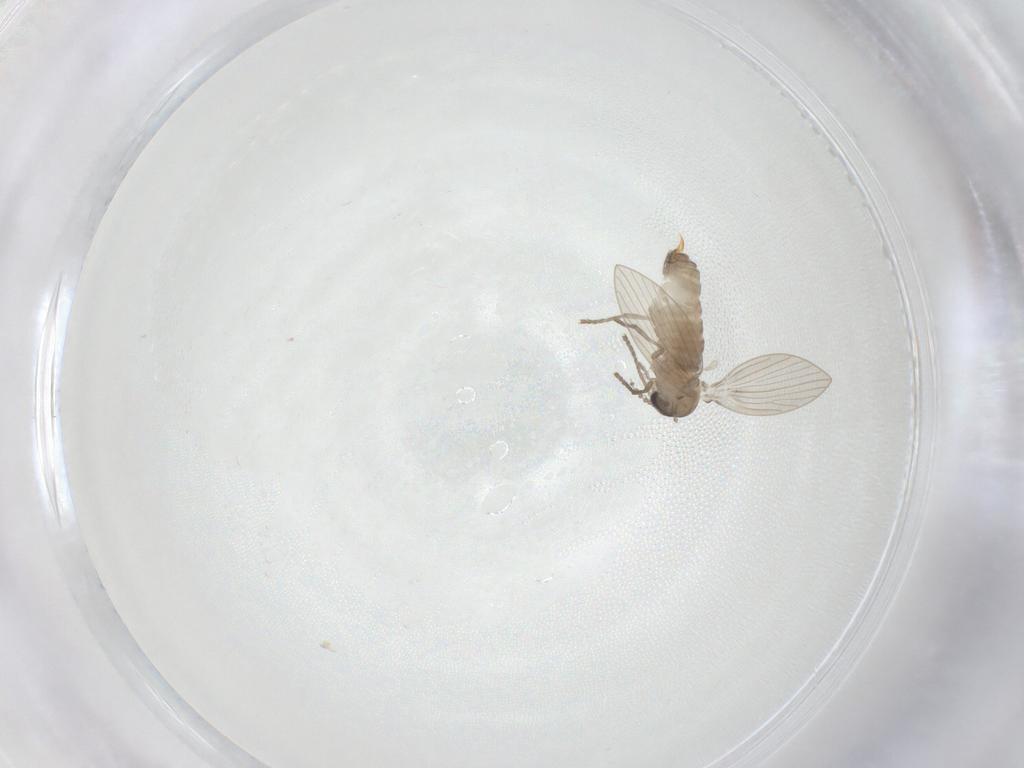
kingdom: Animalia
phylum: Arthropoda
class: Insecta
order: Diptera
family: Psychodidae
